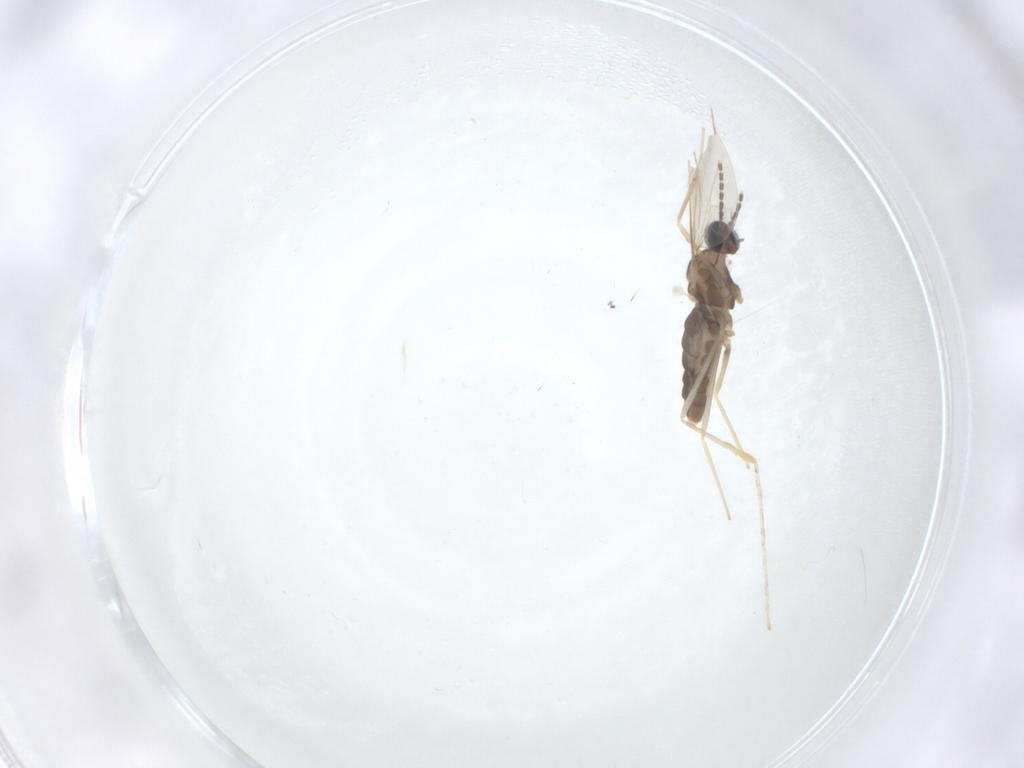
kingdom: Animalia
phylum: Arthropoda
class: Insecta
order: Diptera
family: Cecidomyiidae
